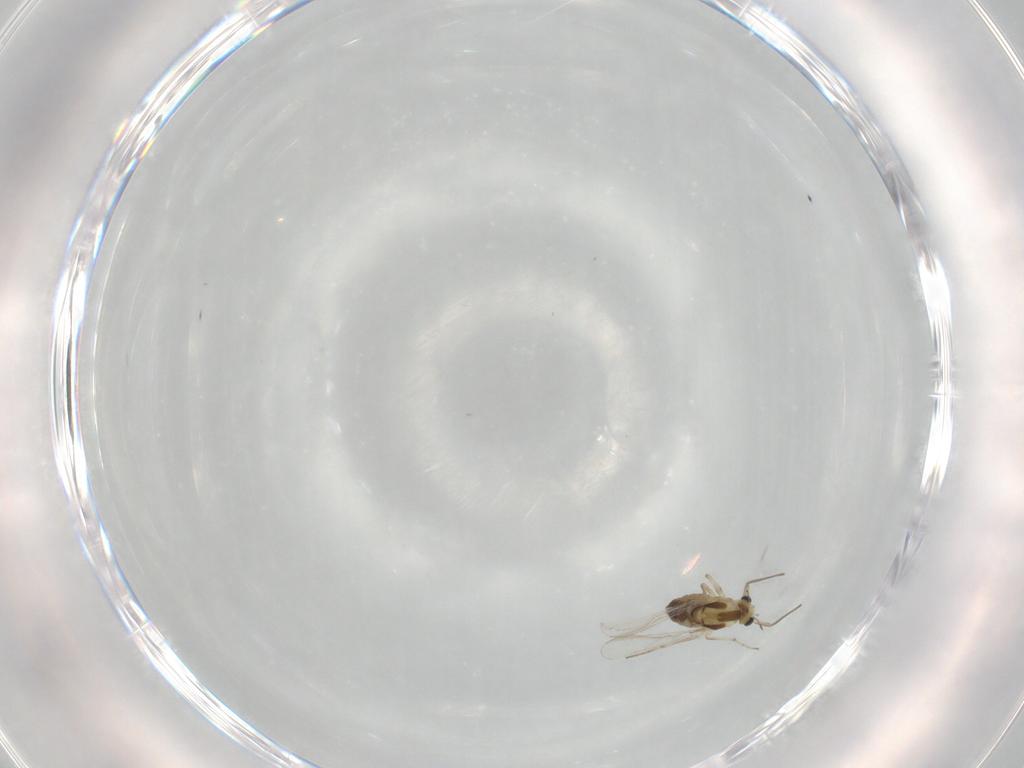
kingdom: Animalia
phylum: Arthropoda
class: Insecta
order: Diptera
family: Chironomidae
